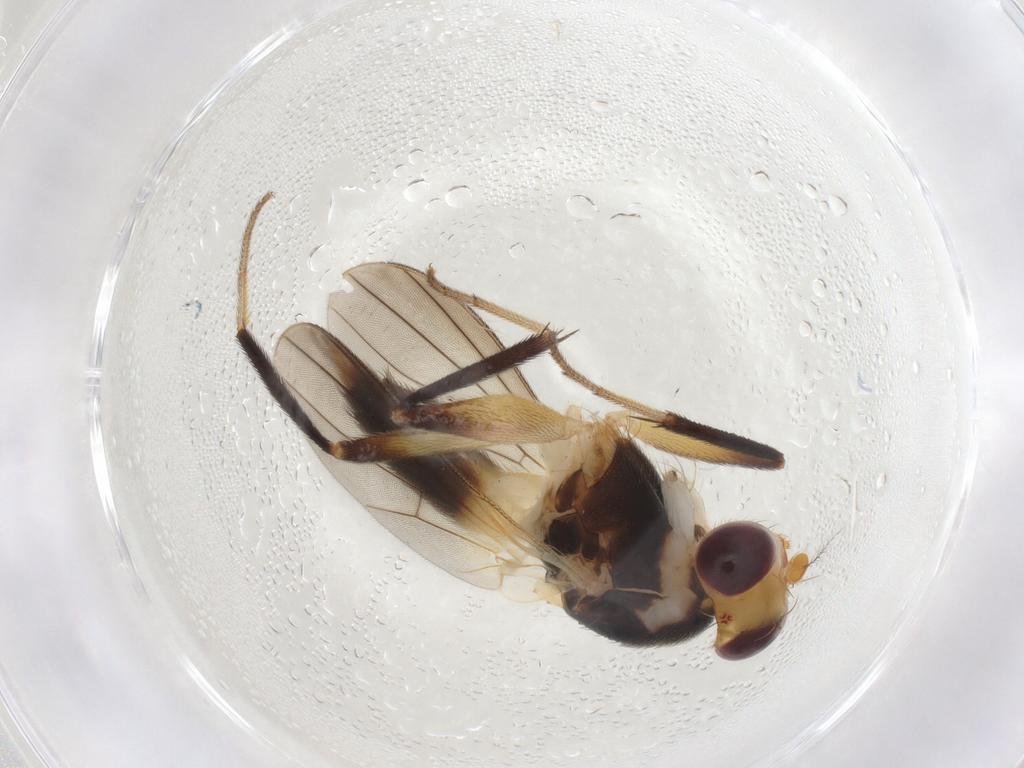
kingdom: Animalia
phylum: Arthropoda
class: Insecta
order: Diptera
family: Clusiidae
